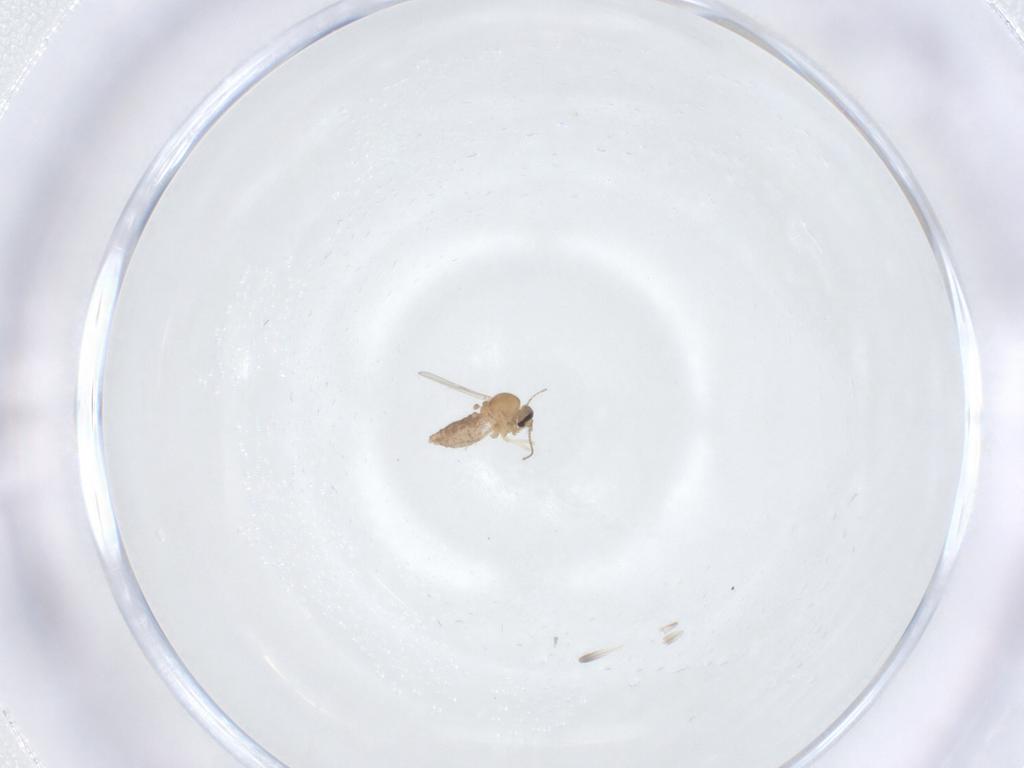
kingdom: Animalia
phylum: Arthropoda
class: Insecta
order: Diptera
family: Ceratopogonidae
